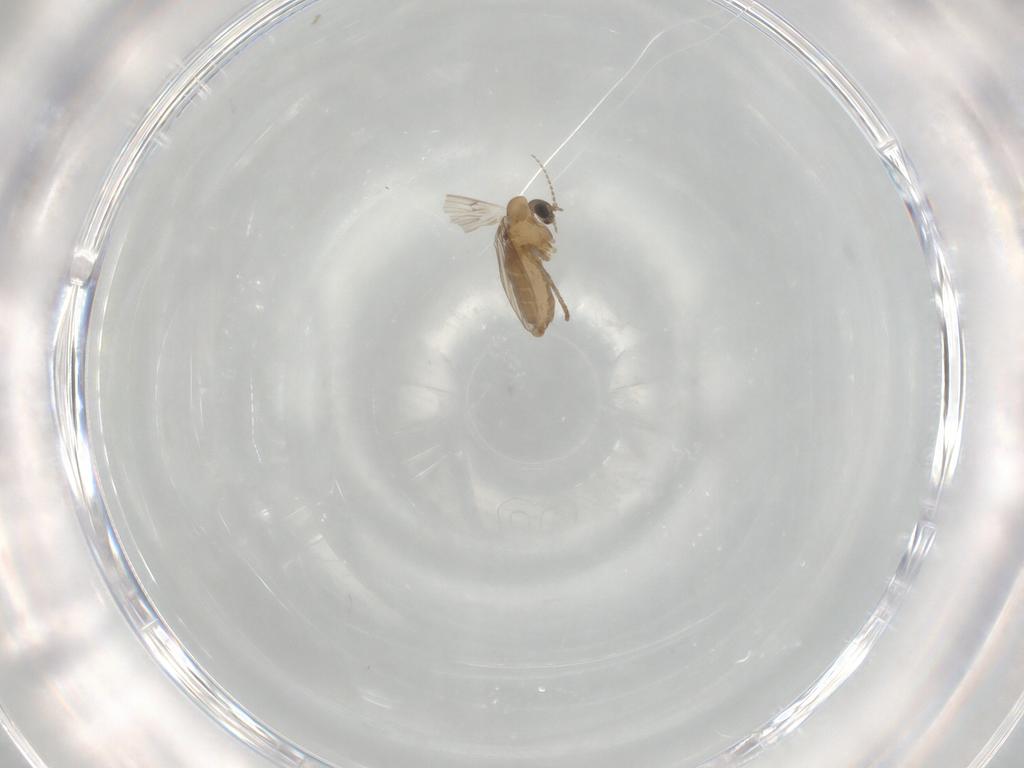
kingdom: Animalia
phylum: Arthropoda
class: Insecta
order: Diptera
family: Psychodidae
